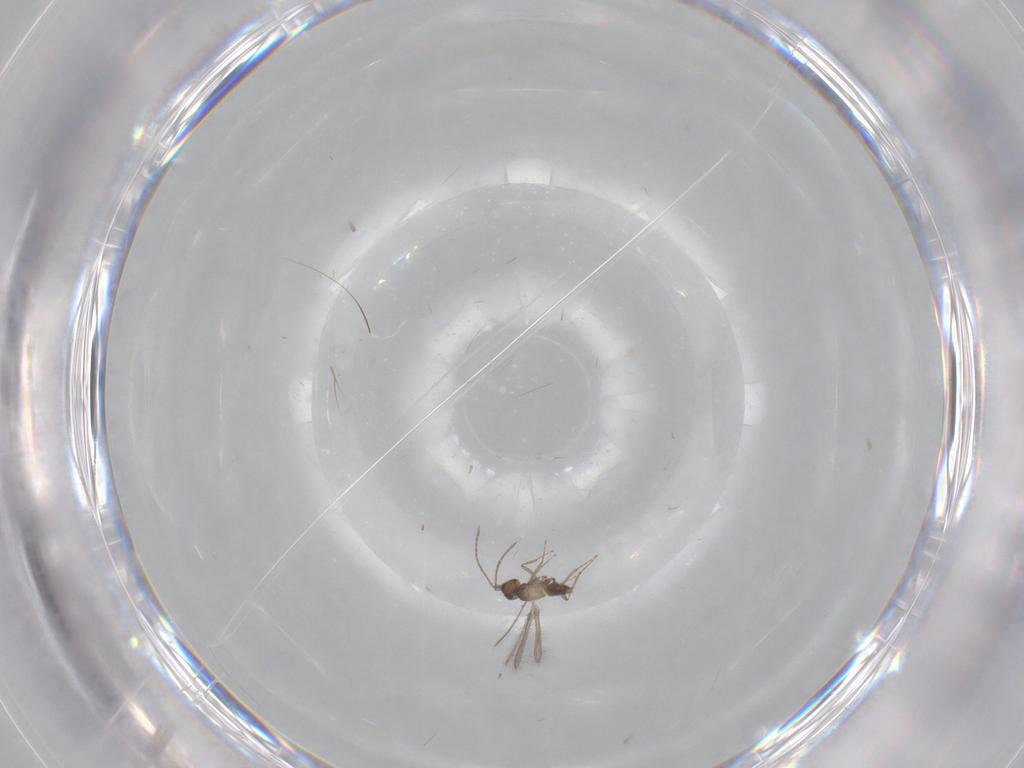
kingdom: Animalia
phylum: Arthropoda
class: Insecta
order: Hymenoptera
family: Mymaridae
